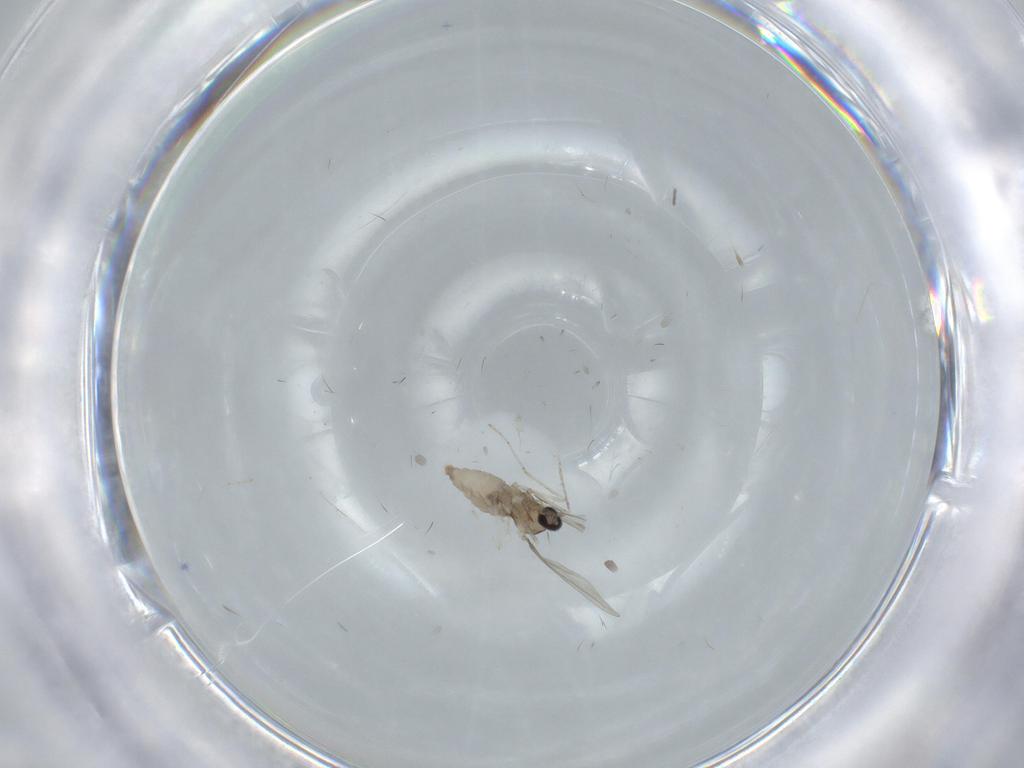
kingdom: Animalia
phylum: Arthropoda
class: Insecta
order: Diptera
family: Cecidomyiidae
